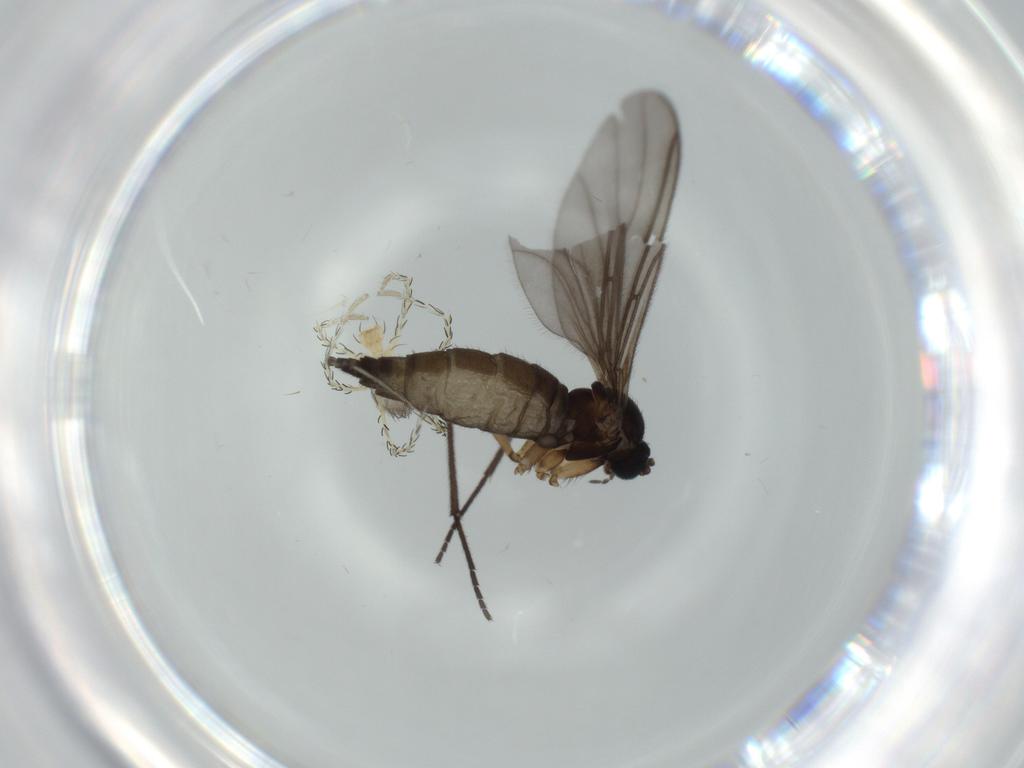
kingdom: Animalia
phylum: Arthropoda
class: Arachnida
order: Trombidiformes
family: Erythraeidae
